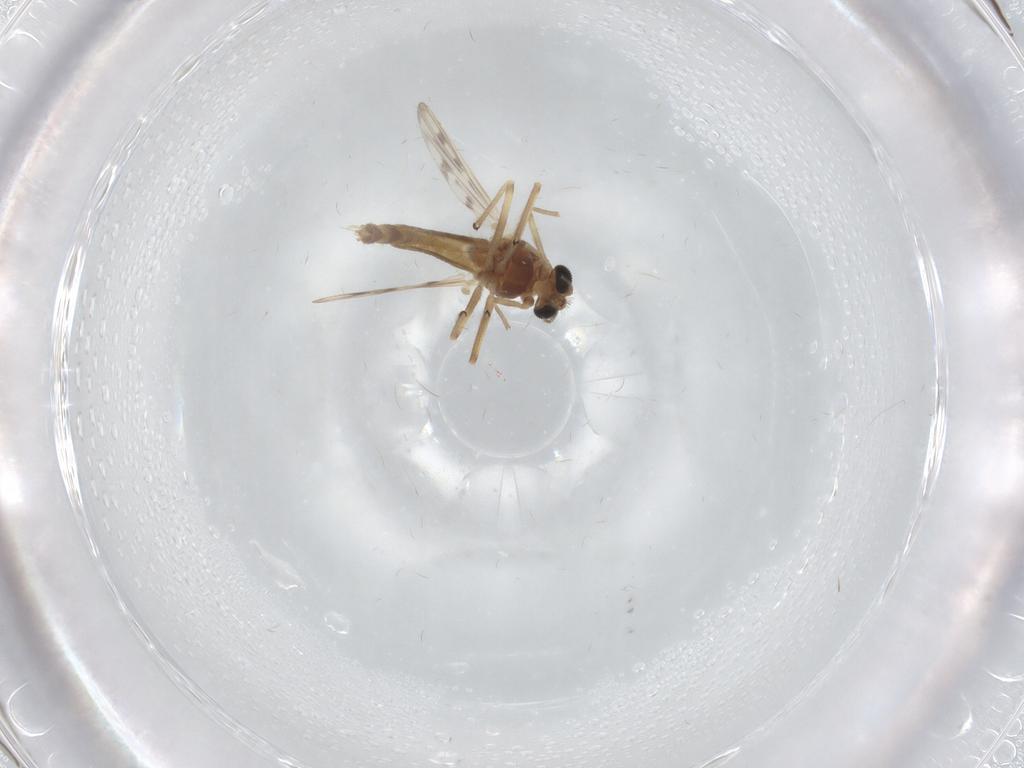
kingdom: Animalia
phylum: Arthropoda
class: Insecta
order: Diptera
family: Chironomidae
